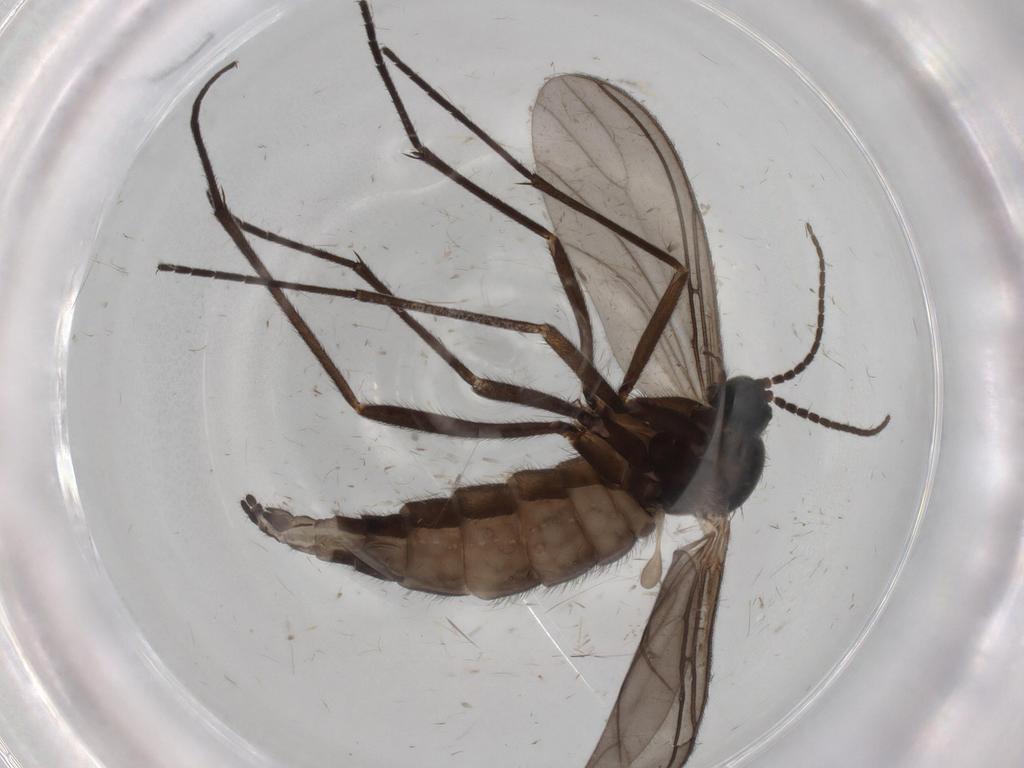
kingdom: Animalia
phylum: Arthropoda
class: Insecta
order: Diptera
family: Sciaridae
